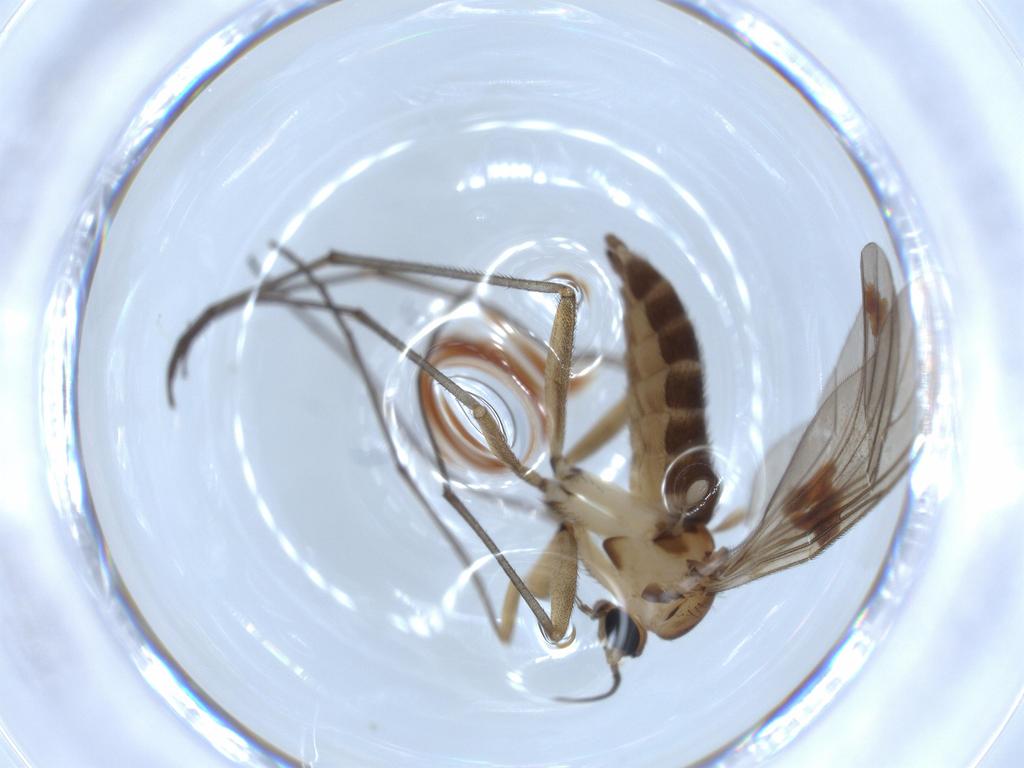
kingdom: Animalia
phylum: Arthropoda
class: Insecta
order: Diptera
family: Sciaridae
